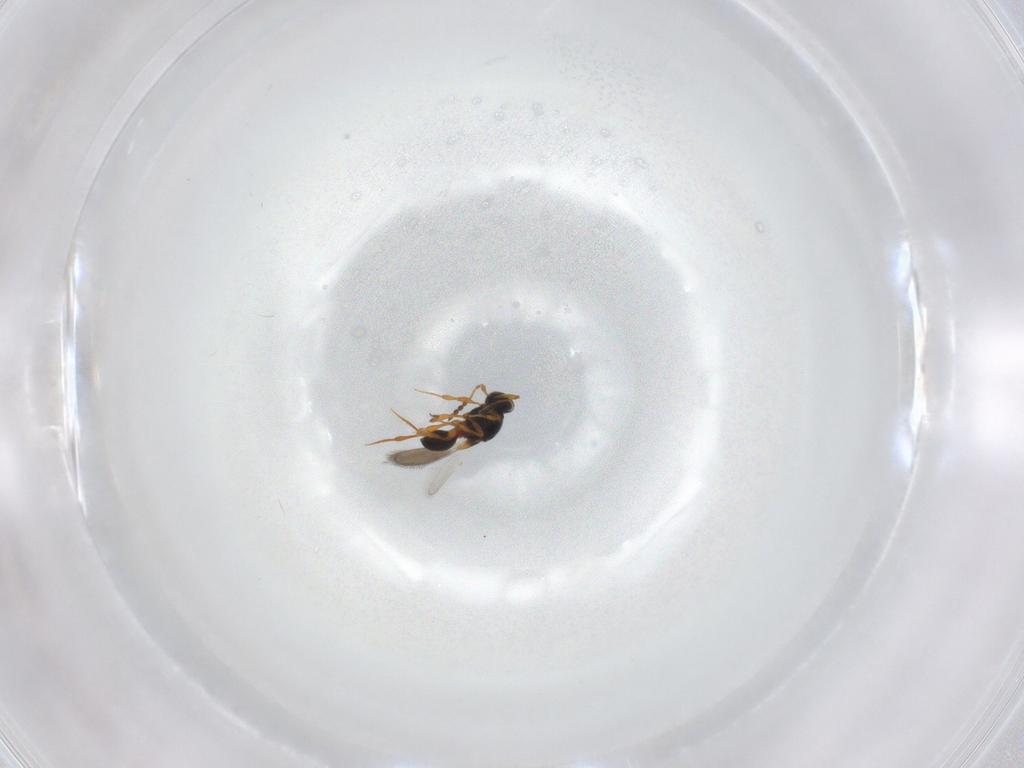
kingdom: Animalia
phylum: Arthropoda
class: Insecta
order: Hymenoptera
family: Platygastridae
